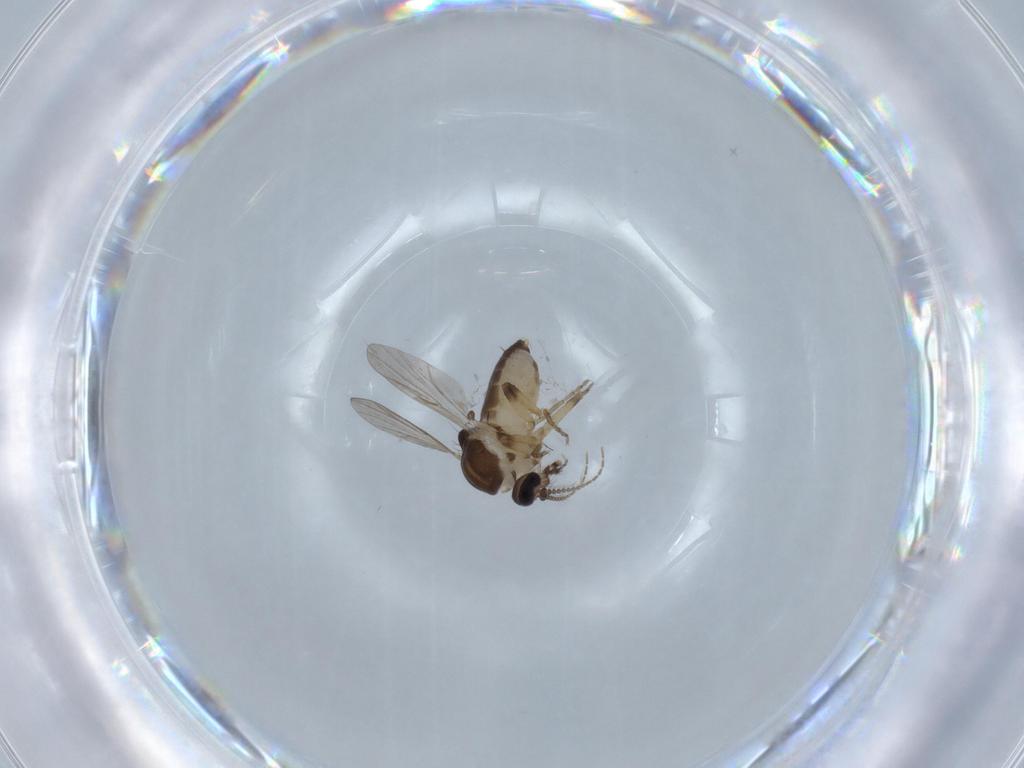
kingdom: Animalia
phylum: Arthropoda
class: Insecta
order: Diptera
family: Ceratopogonidae
